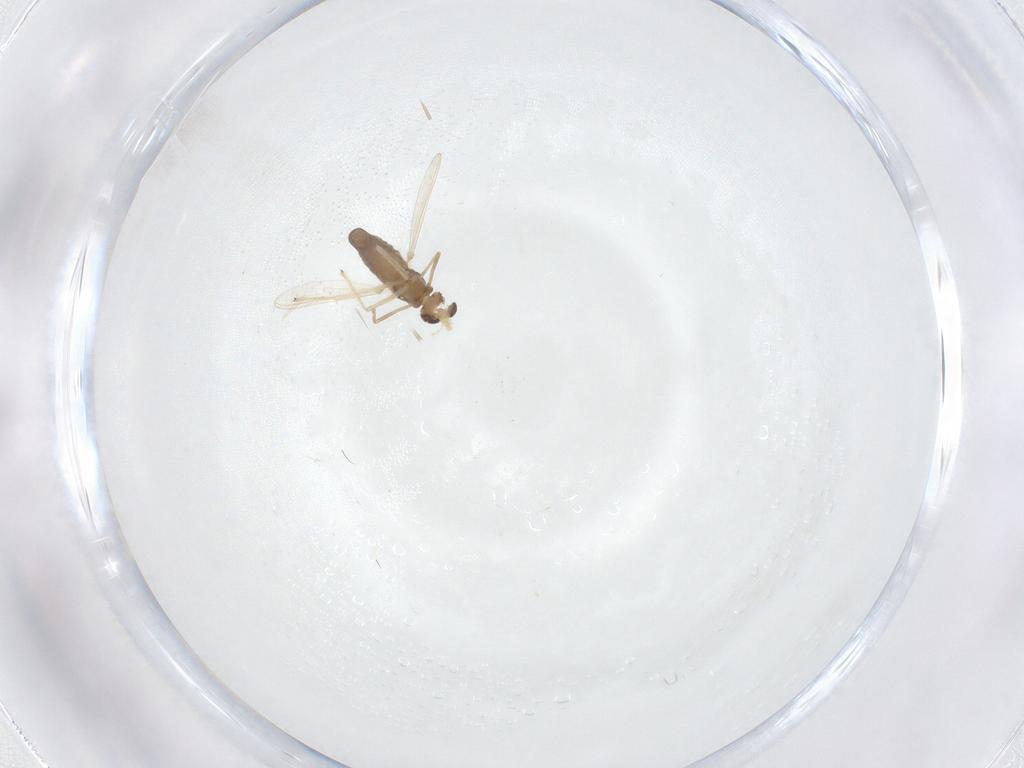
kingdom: Animalia
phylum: Arthropoda
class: Insecta
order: Diptera
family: Chironomidae
